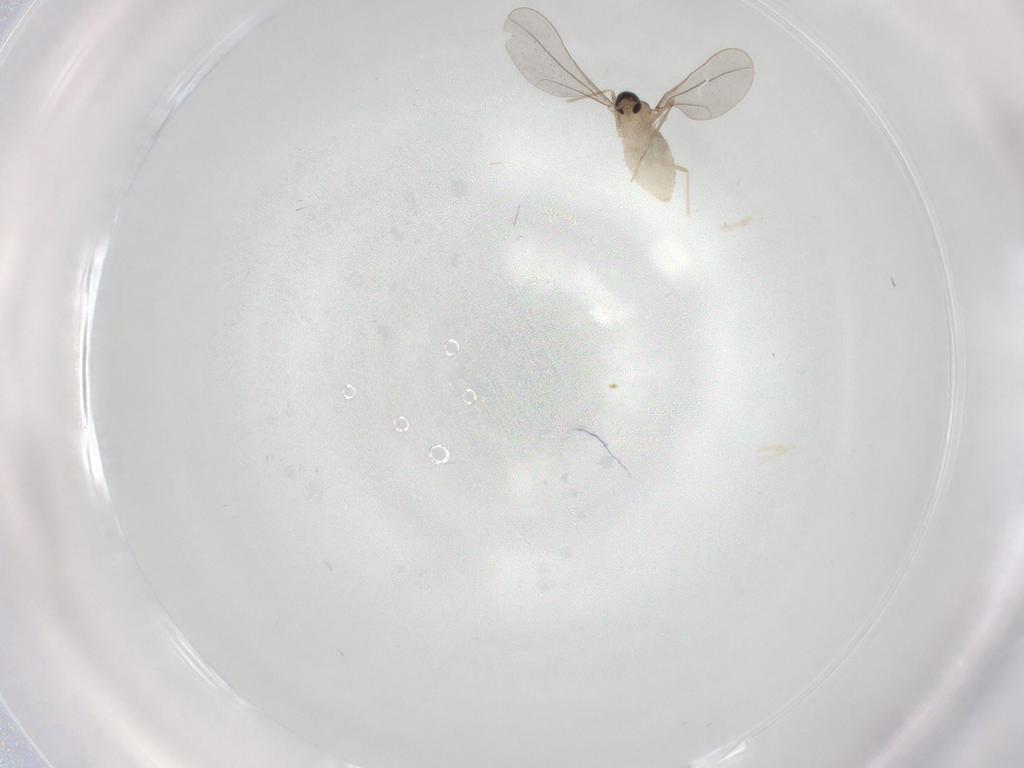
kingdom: Animalia
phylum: Arthropoda
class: Insecta
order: Diptera
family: Cecidomyiidae
